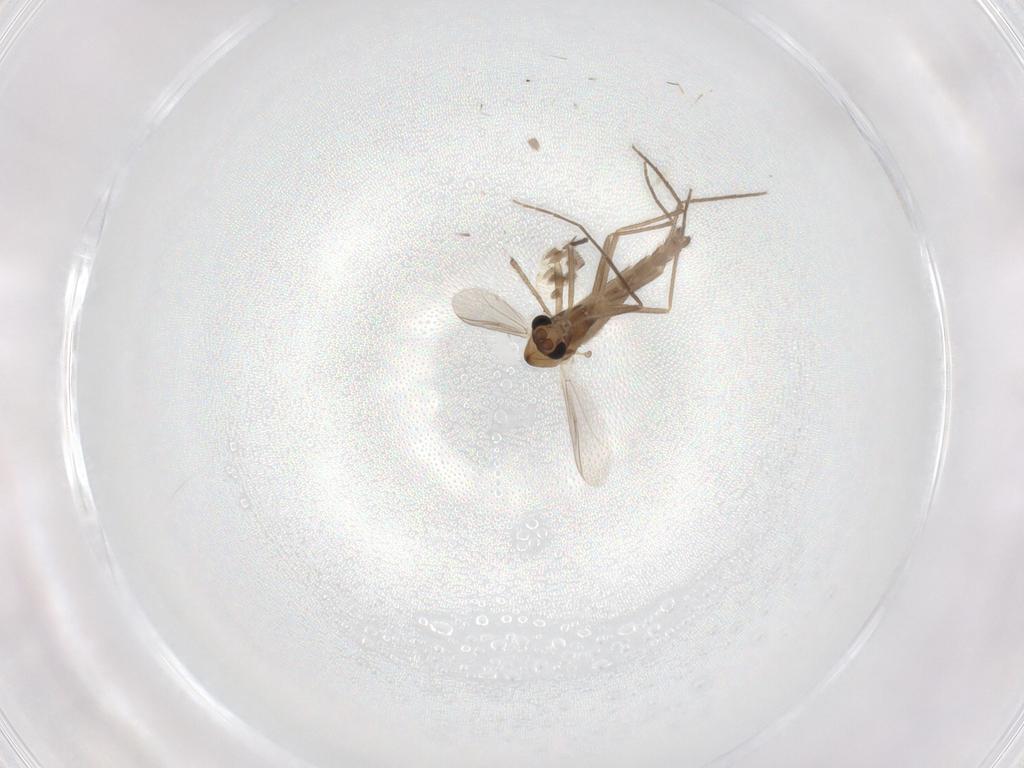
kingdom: Animalia
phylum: Arthropoda
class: Insecta
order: Diptera
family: Chironomidae
